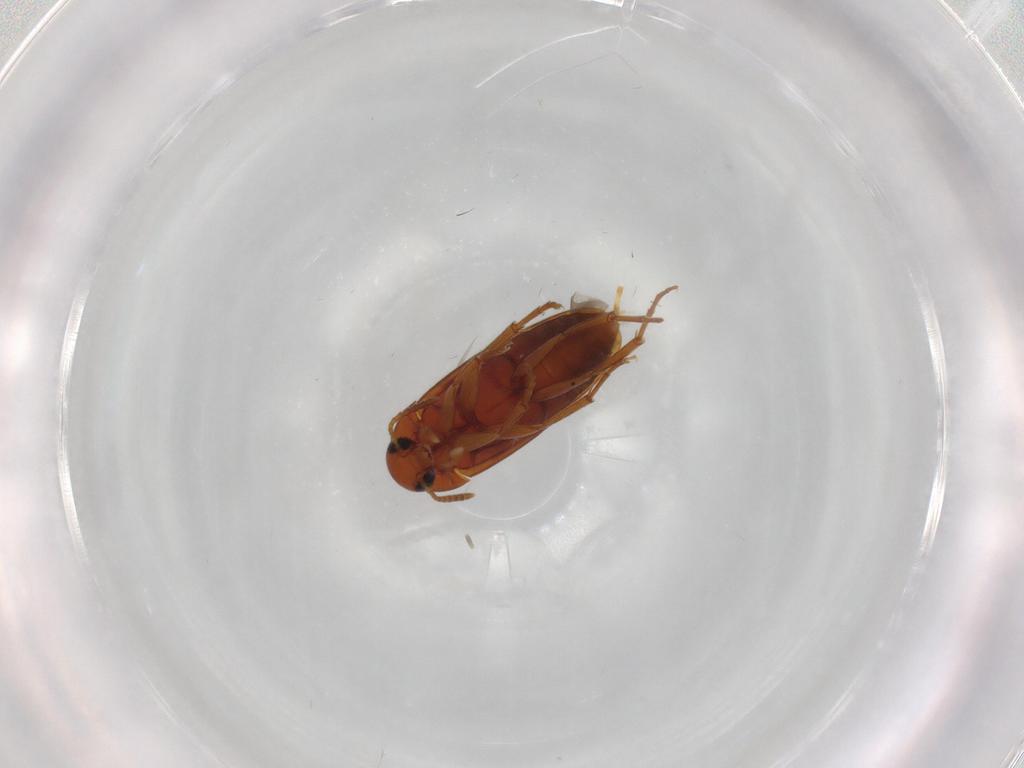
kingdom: Animalia
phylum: Arthropoda
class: Insecta
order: Coleoptera
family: Scraptiidae
